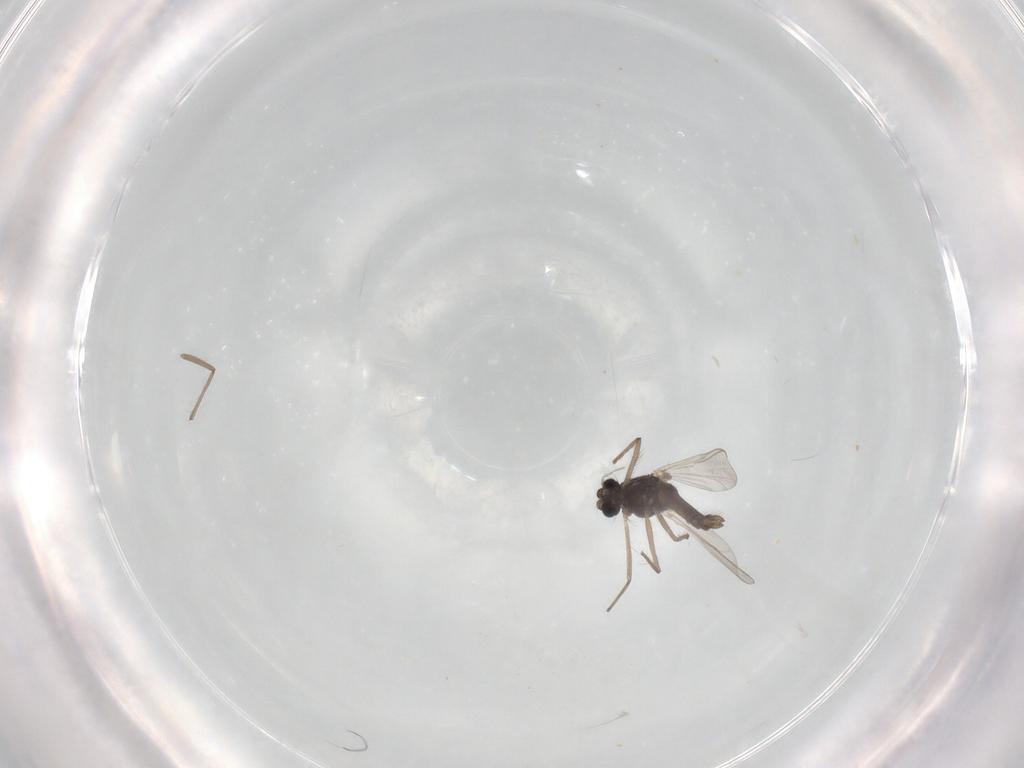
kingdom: Animalia
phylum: Arthropoda
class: Insecta
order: Diptera
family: Chironomidae
